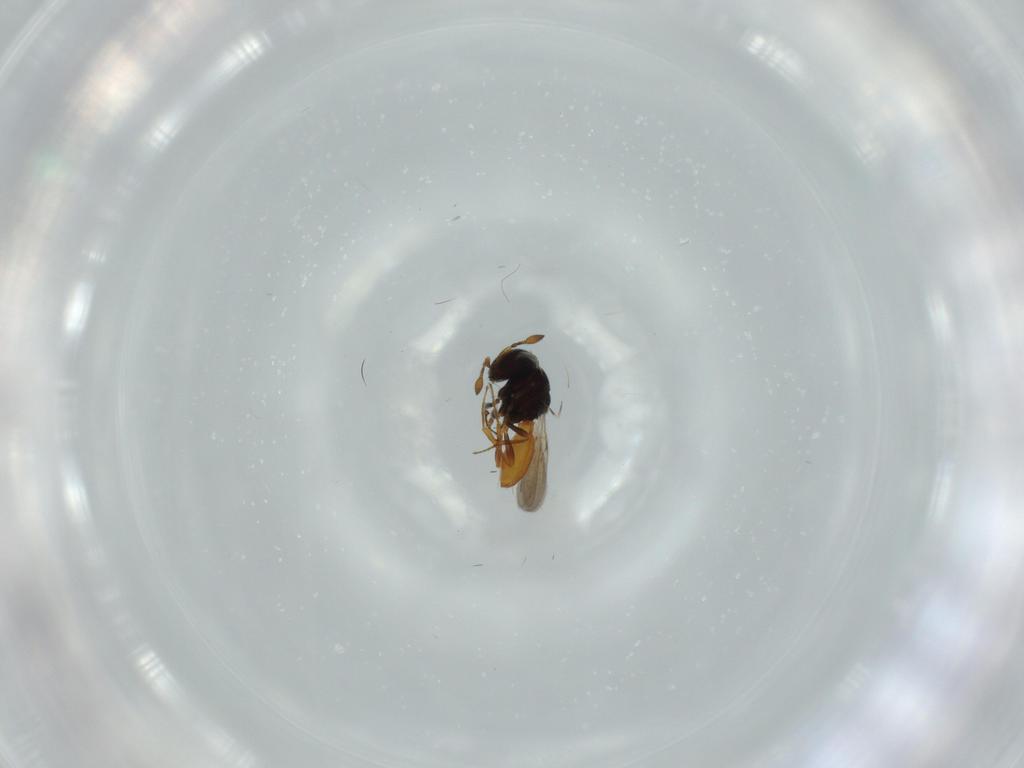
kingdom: Animalia
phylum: Arthropoda
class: Insecta
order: Hymenoptera
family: Scelionidae
